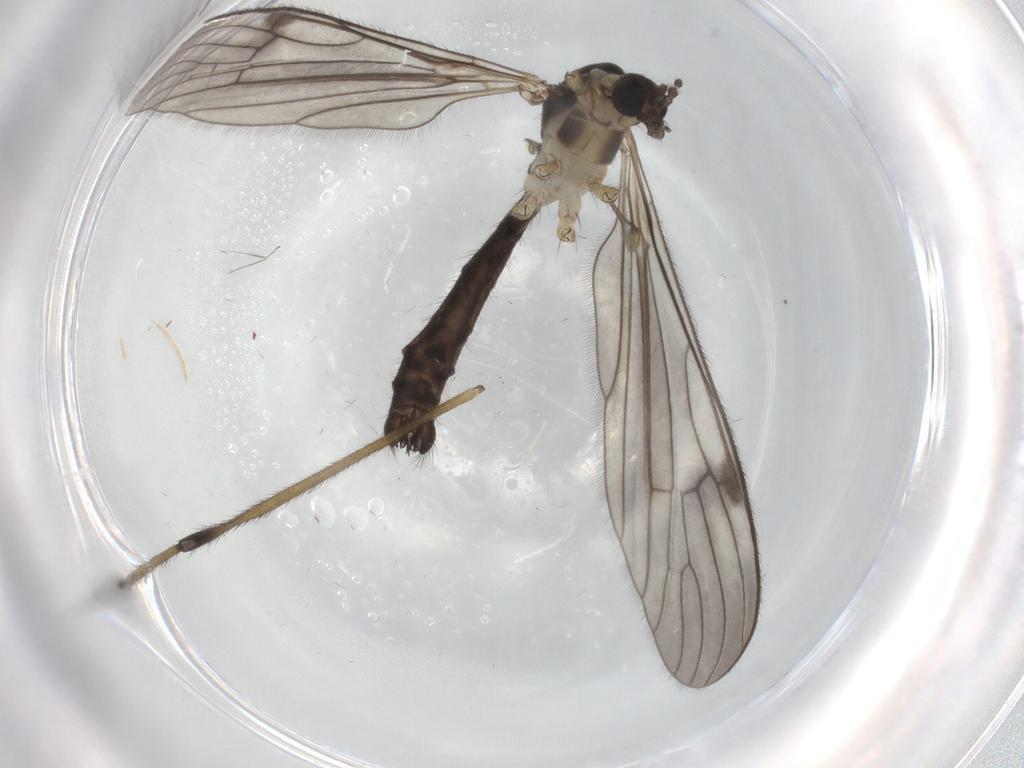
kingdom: Animalia
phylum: Arthropoda
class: Insecta
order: Diptera
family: Limoniidae
